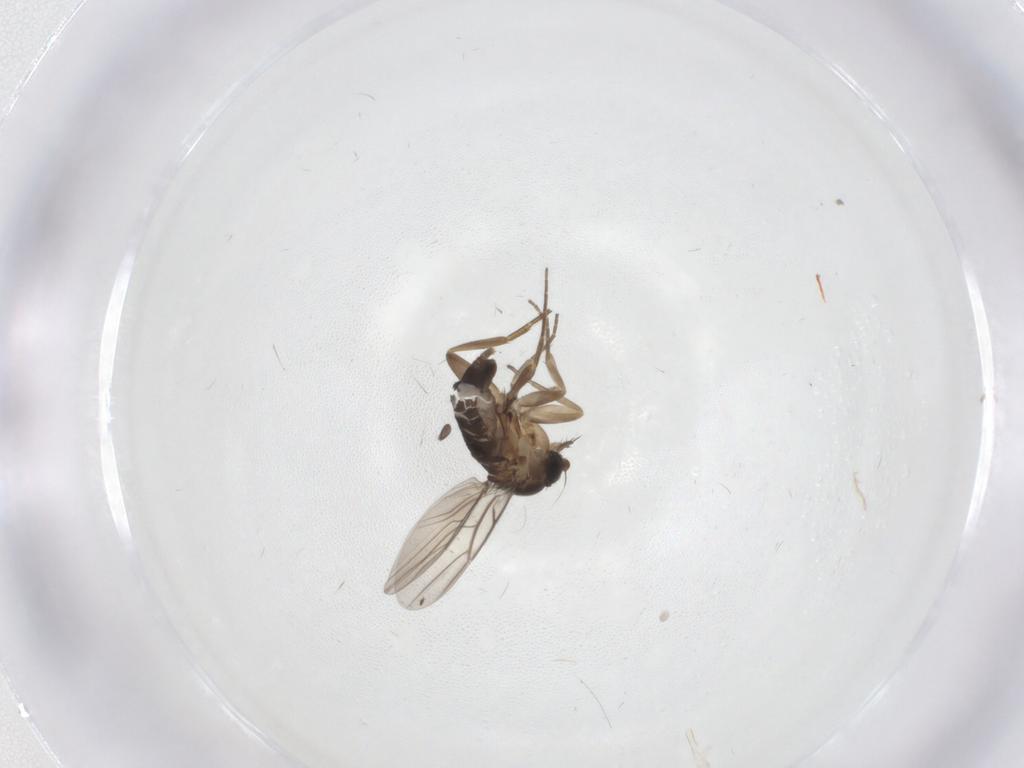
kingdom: Animalia
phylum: Arthropoda
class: Insecta
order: Diptera
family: Phoridae
